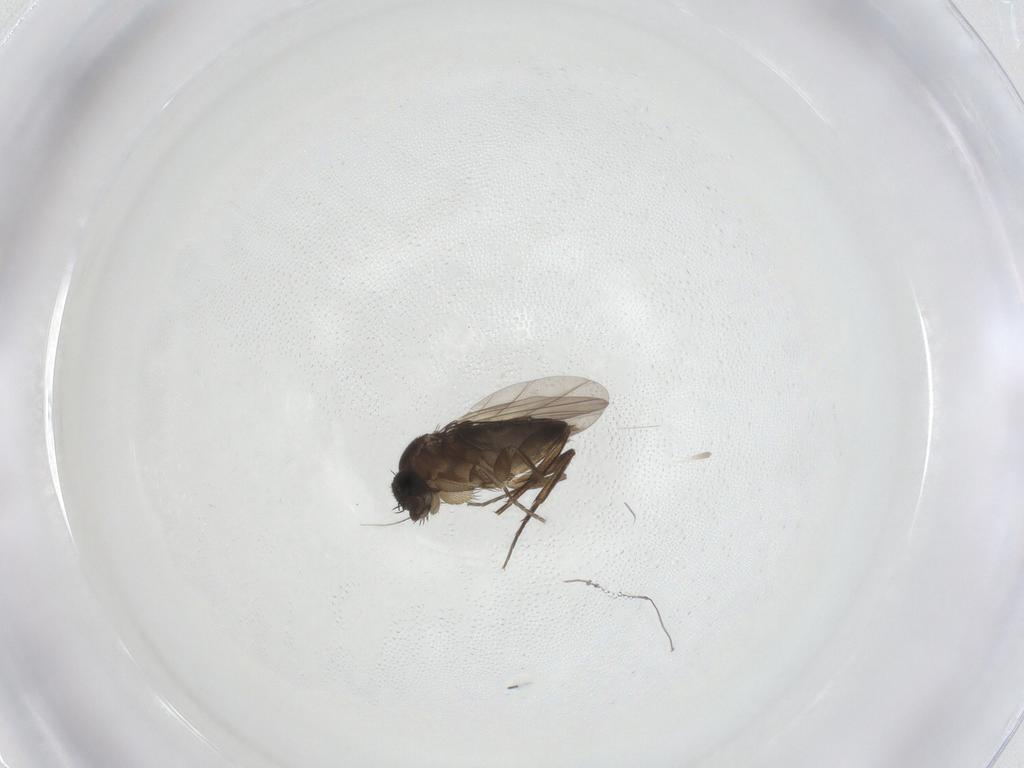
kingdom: Animalia
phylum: Arthropoda
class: Insecta
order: Diptera
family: Phoridae
